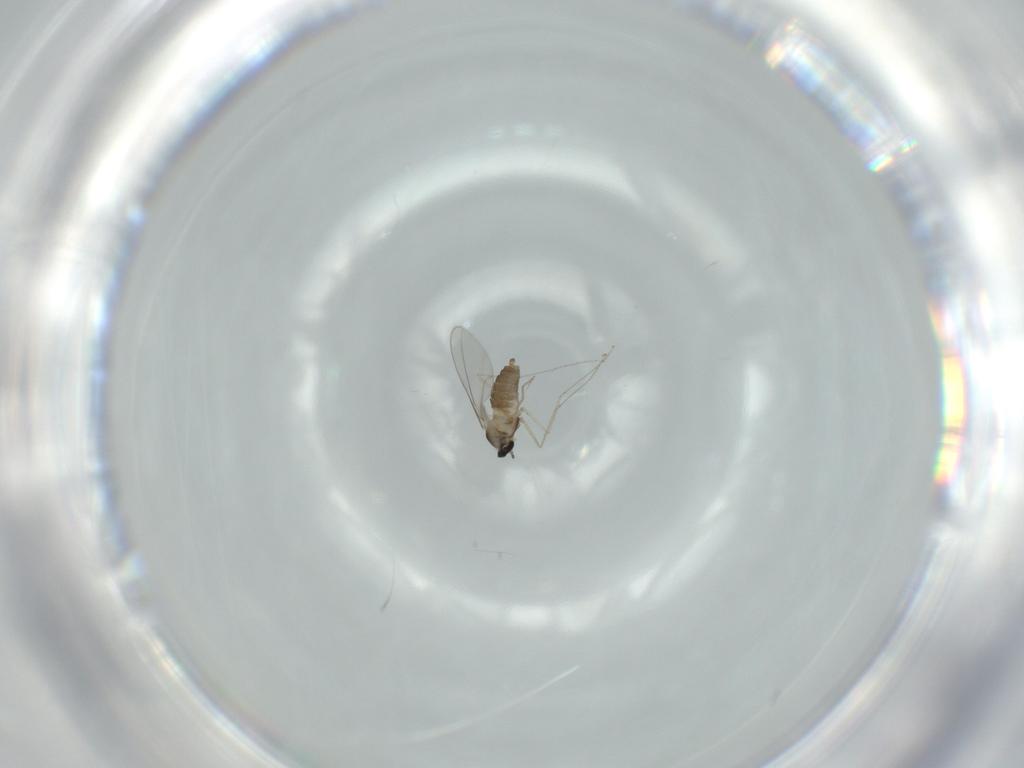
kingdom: Animalia
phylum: Arthropoda
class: Insecta
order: Diptera
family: Cecidomyiidae
